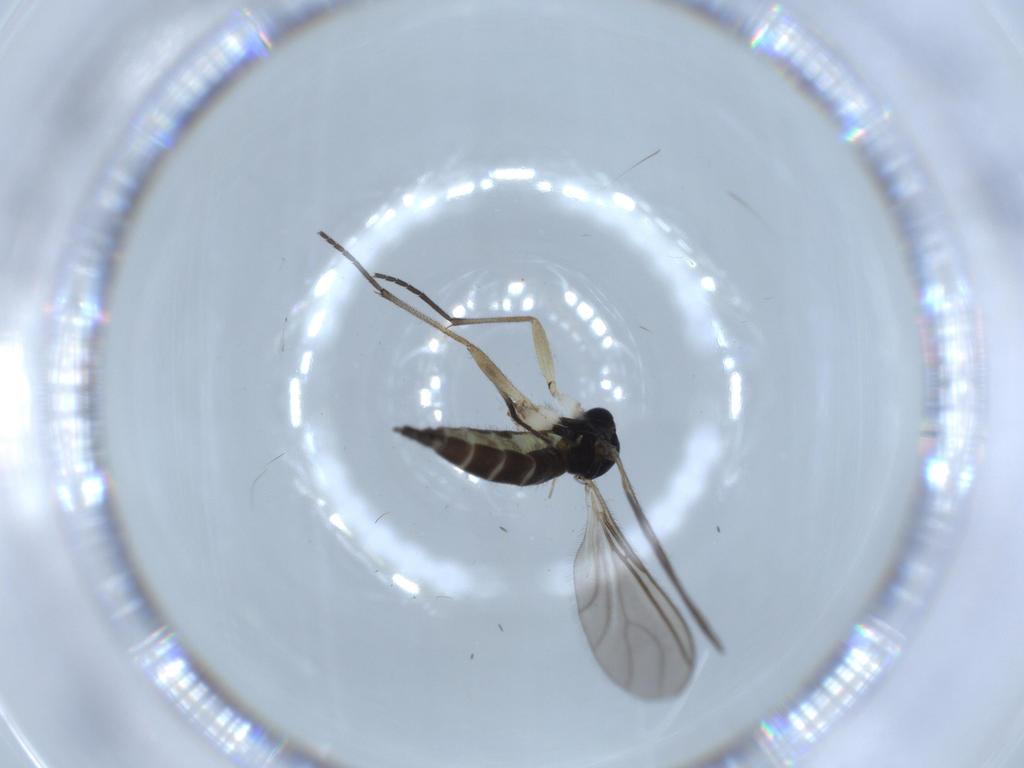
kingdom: Animalia
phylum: Arthropoda
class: Insecta
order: Diptera
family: Sciaridae
